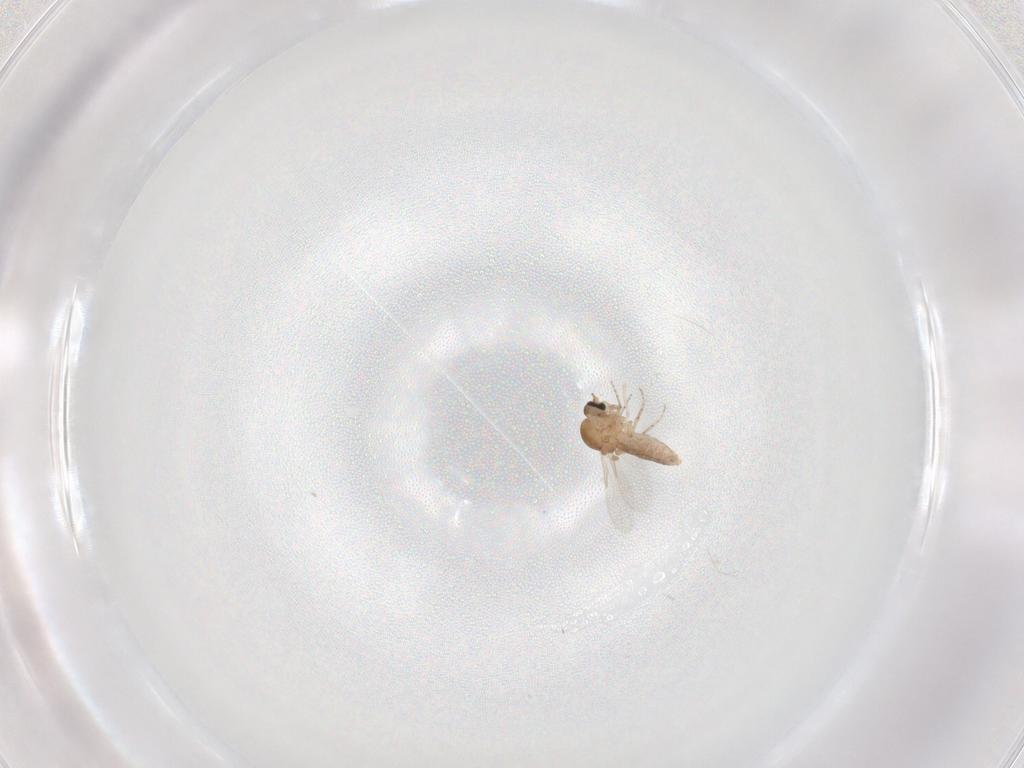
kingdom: Animalia
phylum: Arthropoda
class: Insecta
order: Diptera
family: Ceratopogonidae
